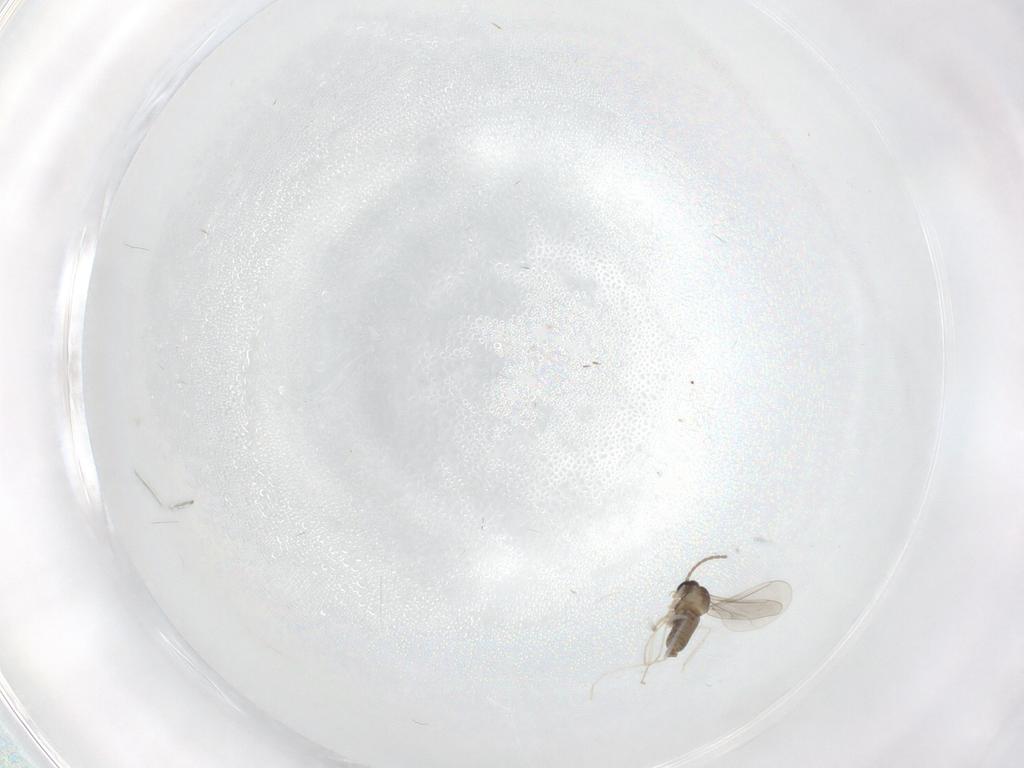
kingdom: Animalia
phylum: Arthropoda
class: Insecta
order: Diptera
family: Cecidomyiidae
